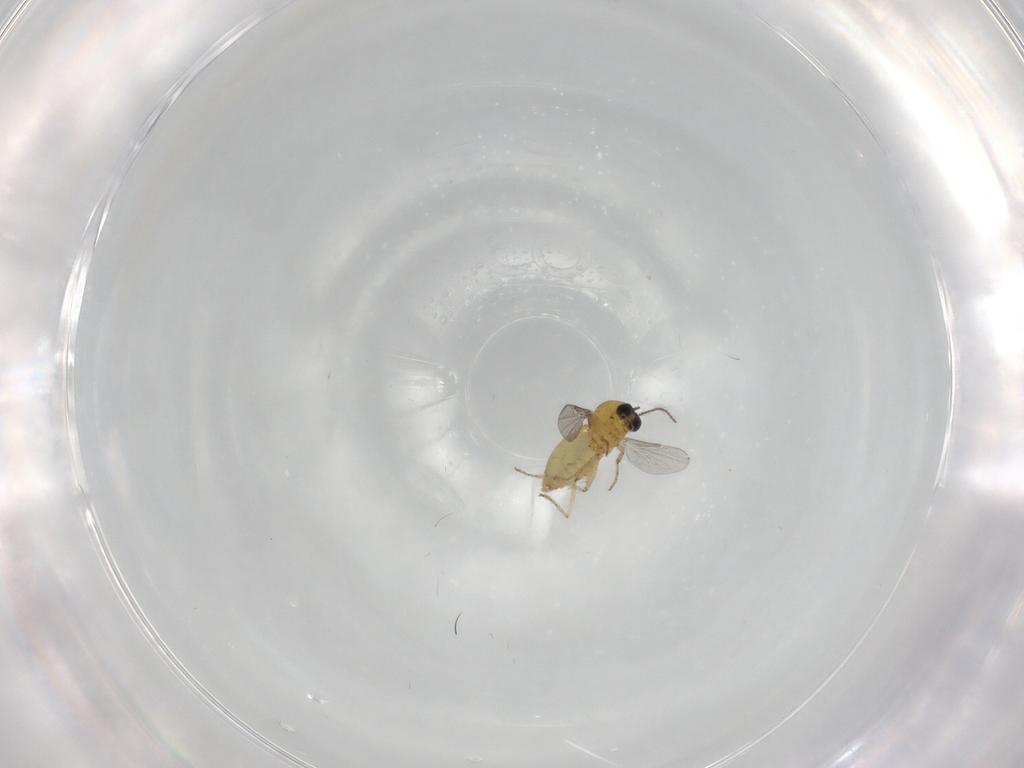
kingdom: Animalia
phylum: Arthropoda
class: Insecta
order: Diptera
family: Ceratopogonidae
